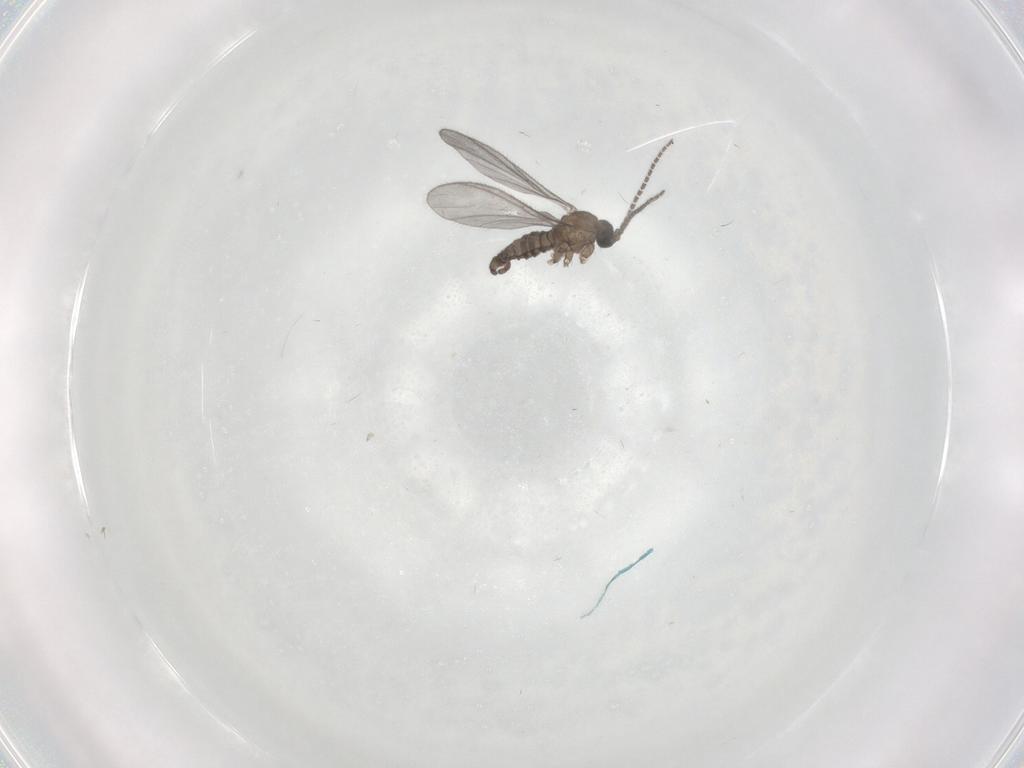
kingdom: Animalia
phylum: Arthropoda
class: Insecta
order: Diptera
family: Sciaridae
